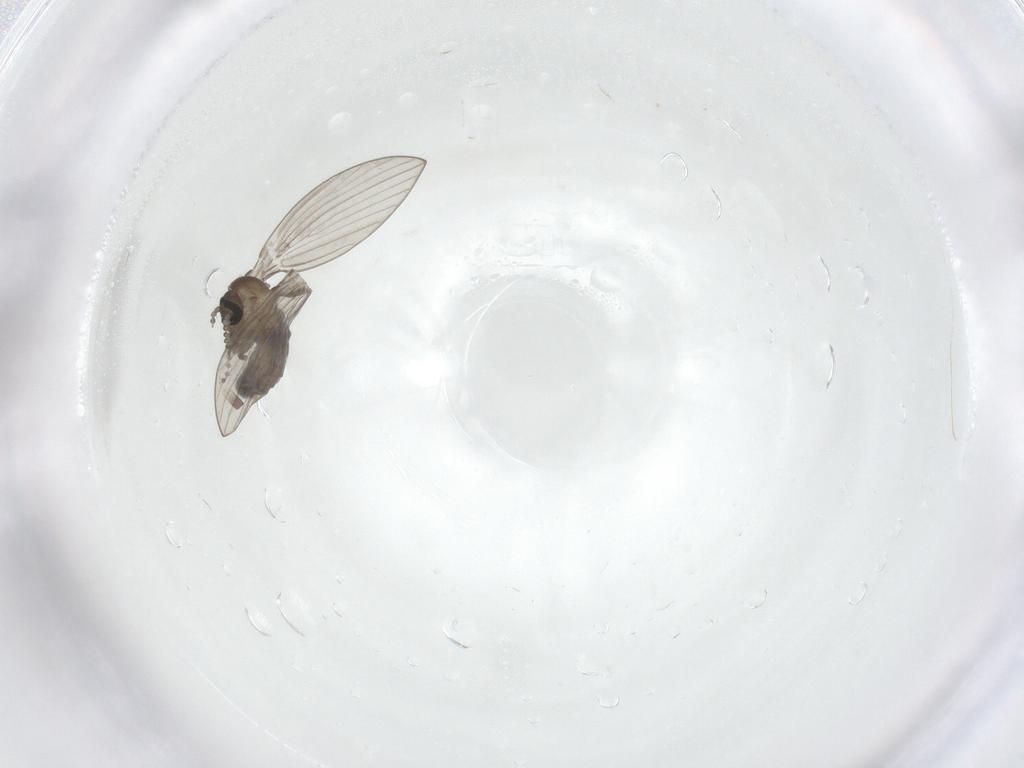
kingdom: Animalia
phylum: Arthropoda
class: Insecta
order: Diptera
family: Psychodidae
